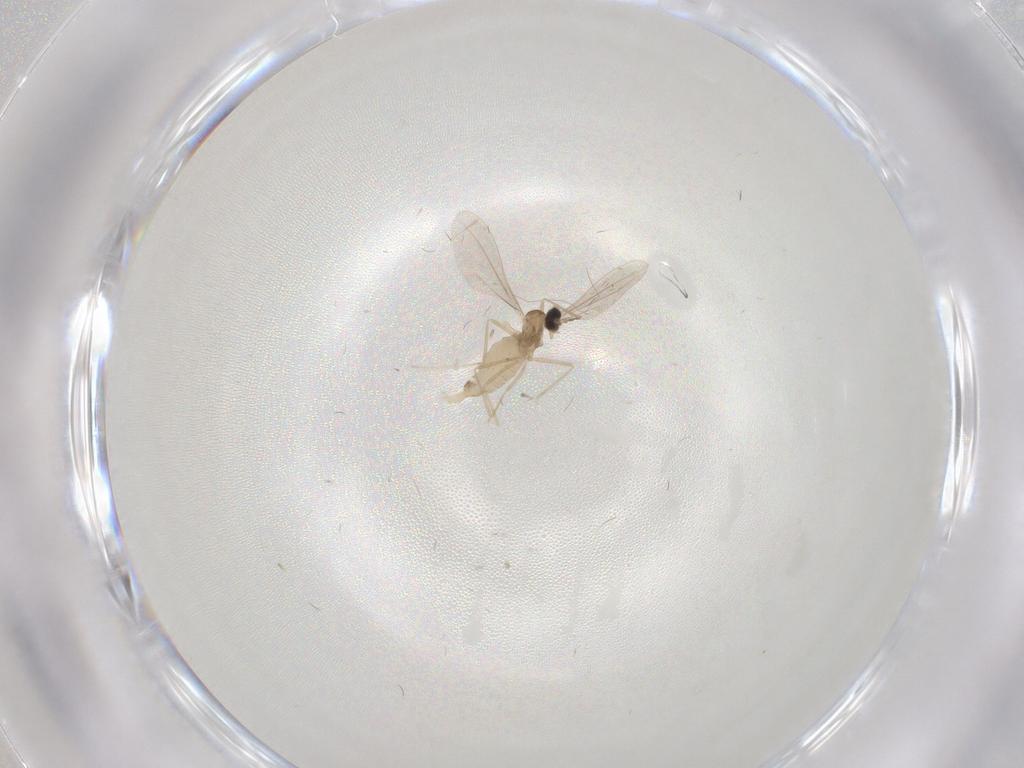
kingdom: Animalia
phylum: Arthropoda
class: Insecta
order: Diptera
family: Cecidomyiidae
